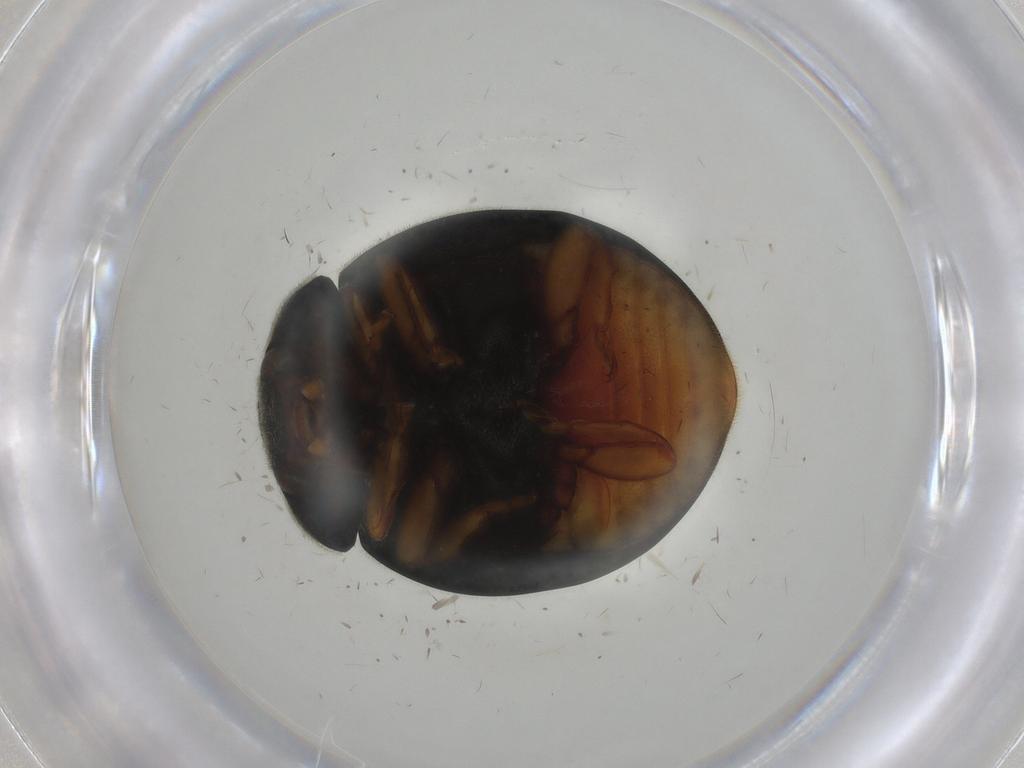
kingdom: Animalia
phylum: Arthropoda
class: Insecta
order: Coleoptera
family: Coccinellidae
